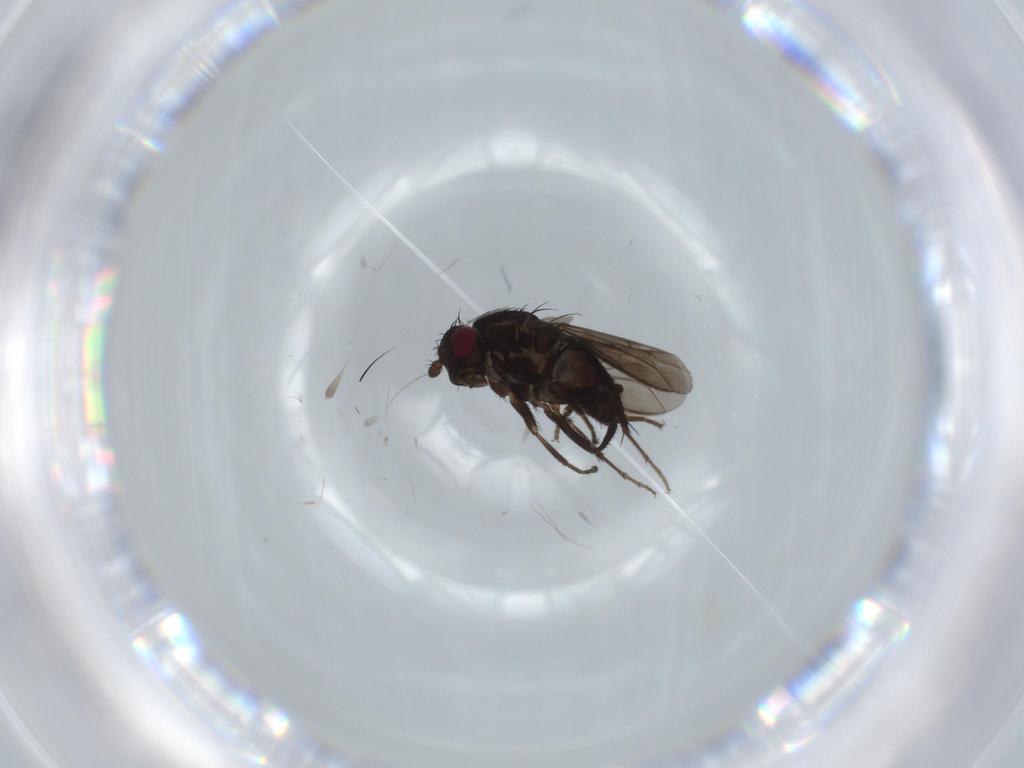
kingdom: Animalia
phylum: Arthropoda
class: Insecta
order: Diptera
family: Sphaeroceridae
